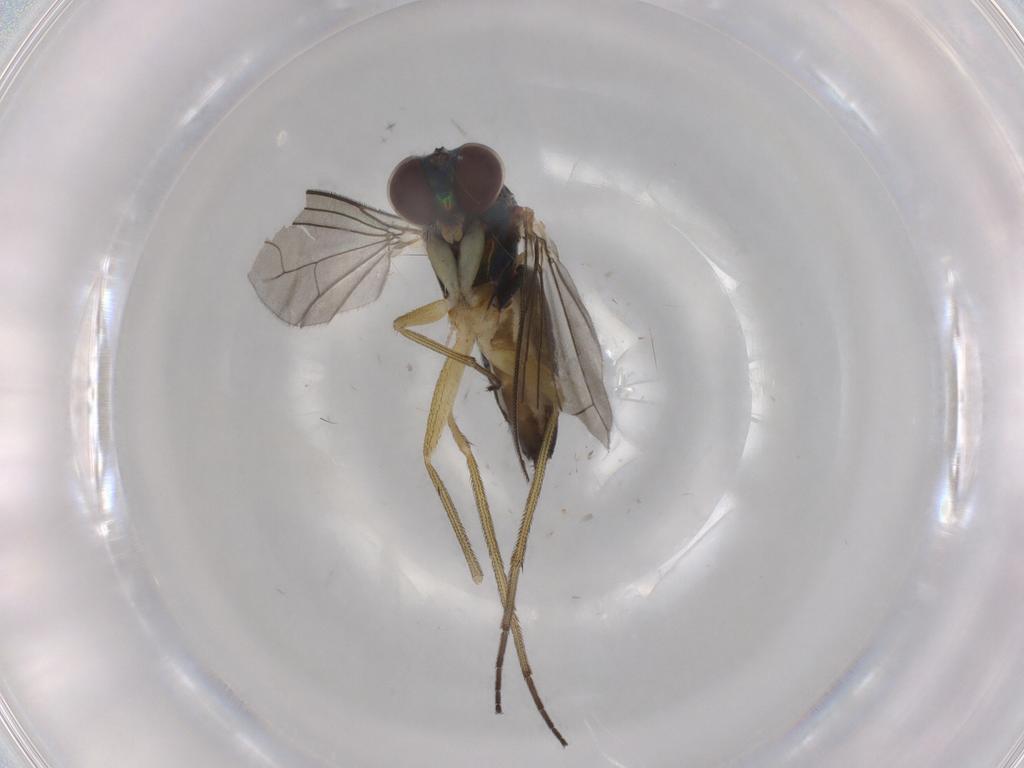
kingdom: Animalia
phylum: Arthropoda
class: Insecta
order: Diptera
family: Dolichopodidae
